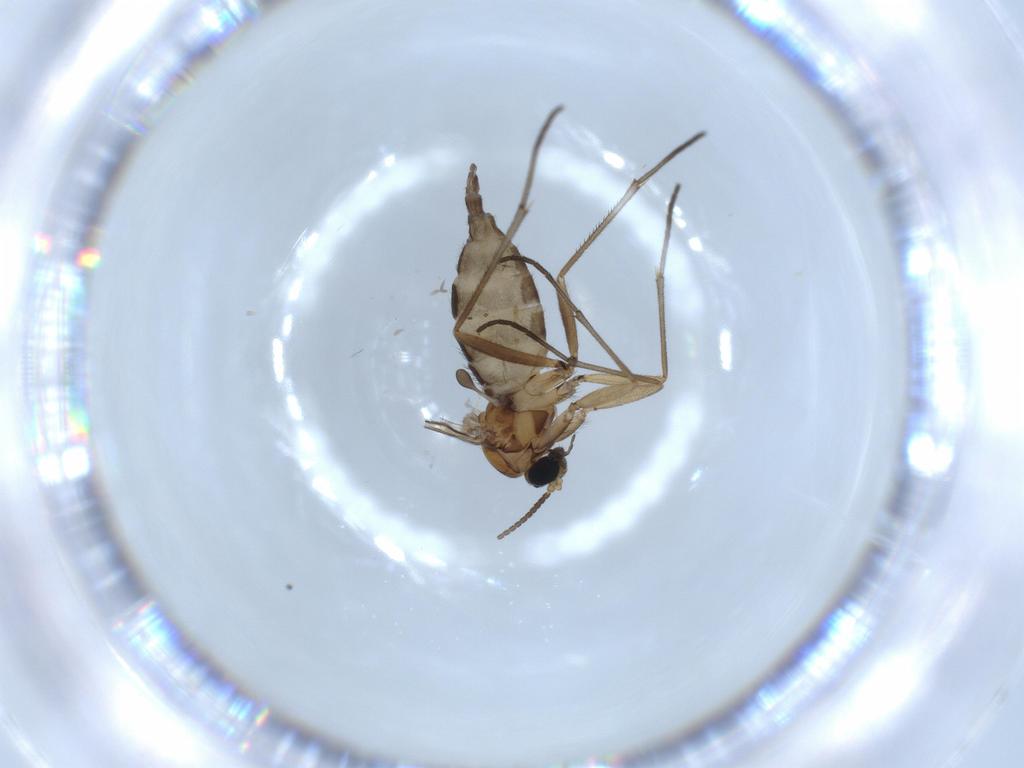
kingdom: Animalia
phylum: Arthropoda
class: Insecta
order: Diptera
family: Sciaridae
